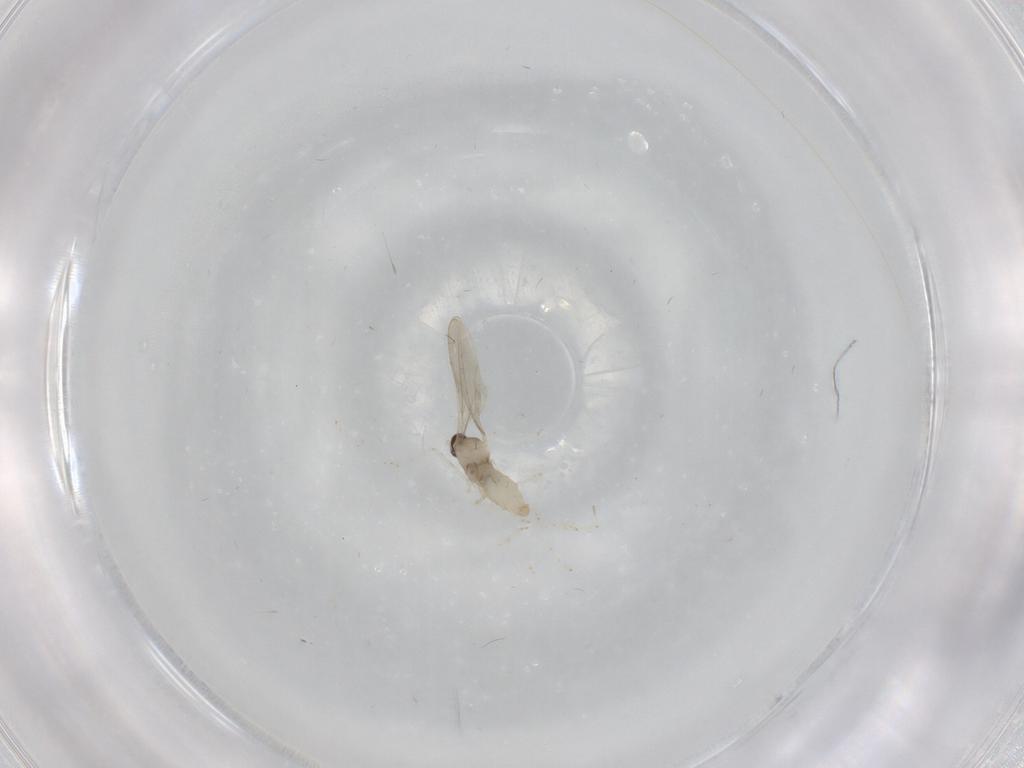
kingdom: Animalia
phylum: Arthropoda
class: Insecta
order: Diptera
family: Cecidomyiidae
